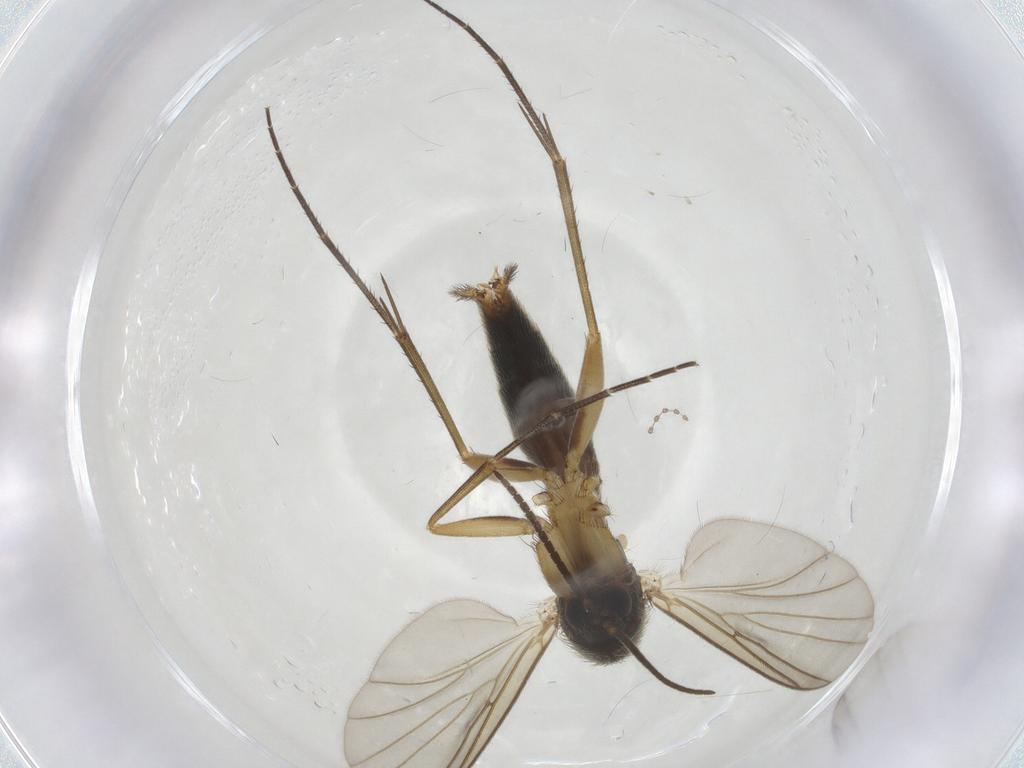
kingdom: Animalia
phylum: Arthropoda
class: Insecta
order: Diptera
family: Cecidomyiidae
